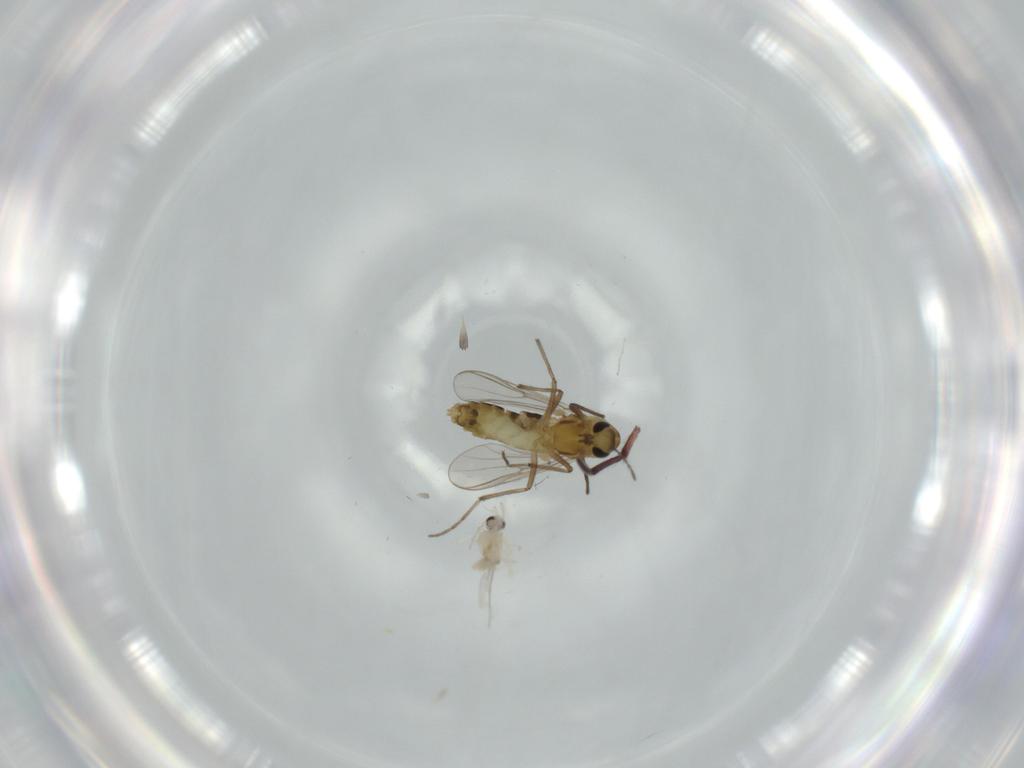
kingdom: Animalia
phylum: Arthropoda
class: Insecta
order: Diptera
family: Chironomidae
